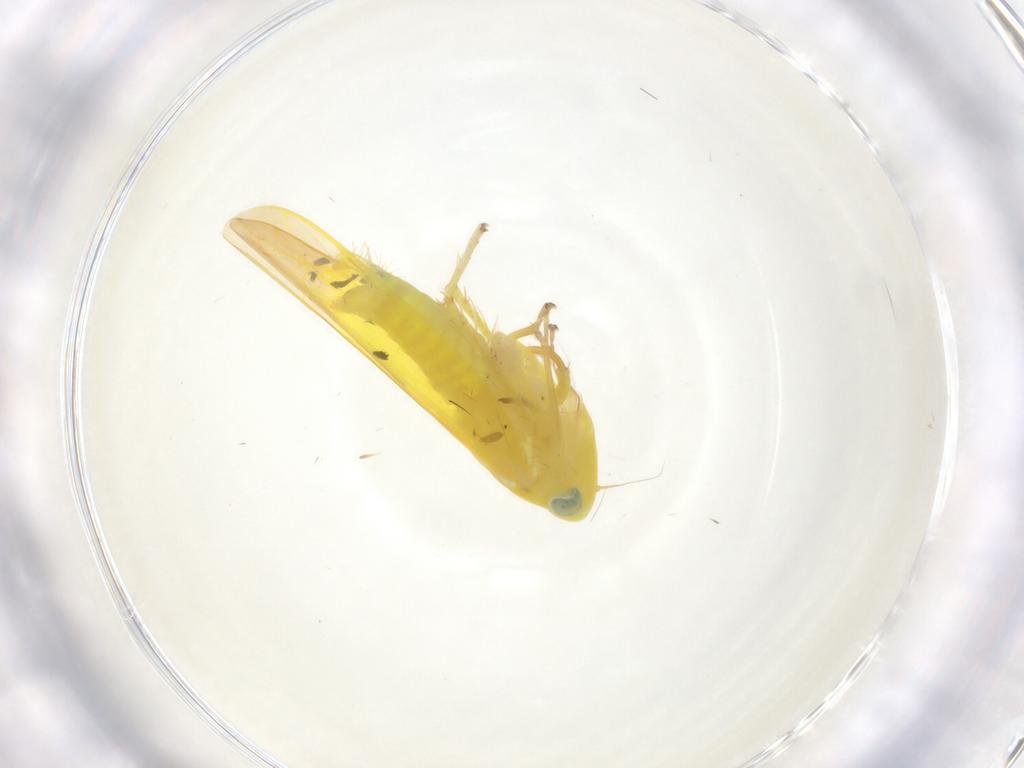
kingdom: Animalia
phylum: Arthropoda
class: Insecta
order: Hemiptera
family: Cicadellidae
